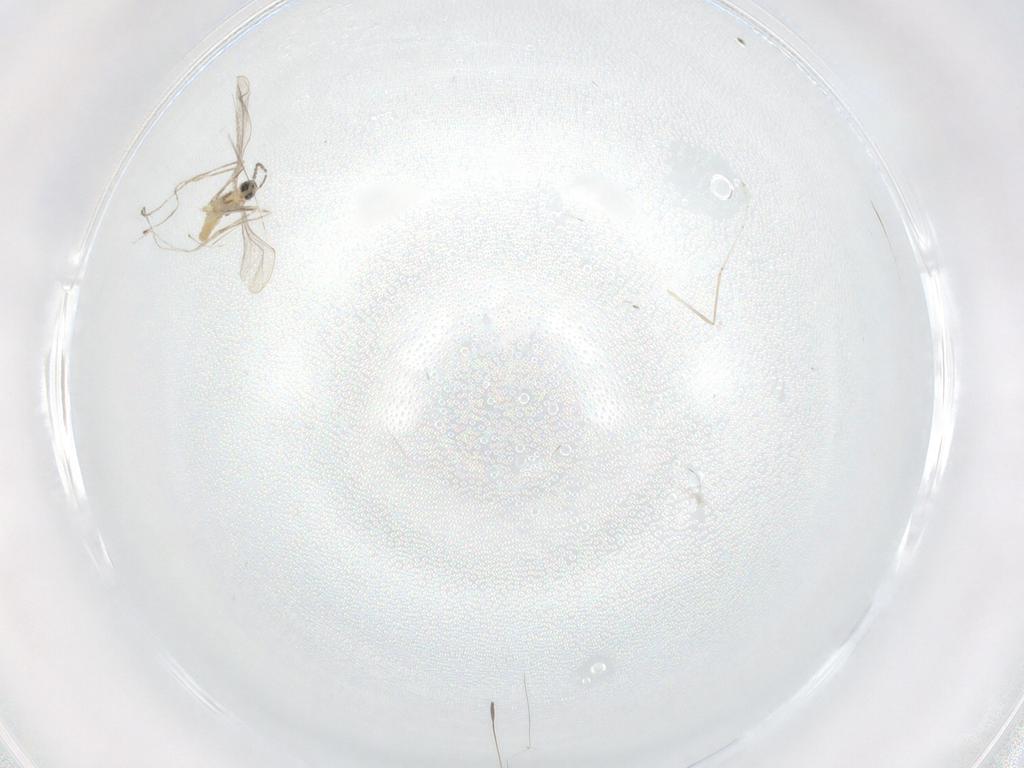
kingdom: Animalia
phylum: Arthropoda
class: Insecta
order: Diptera
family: Cecidomyiidae
